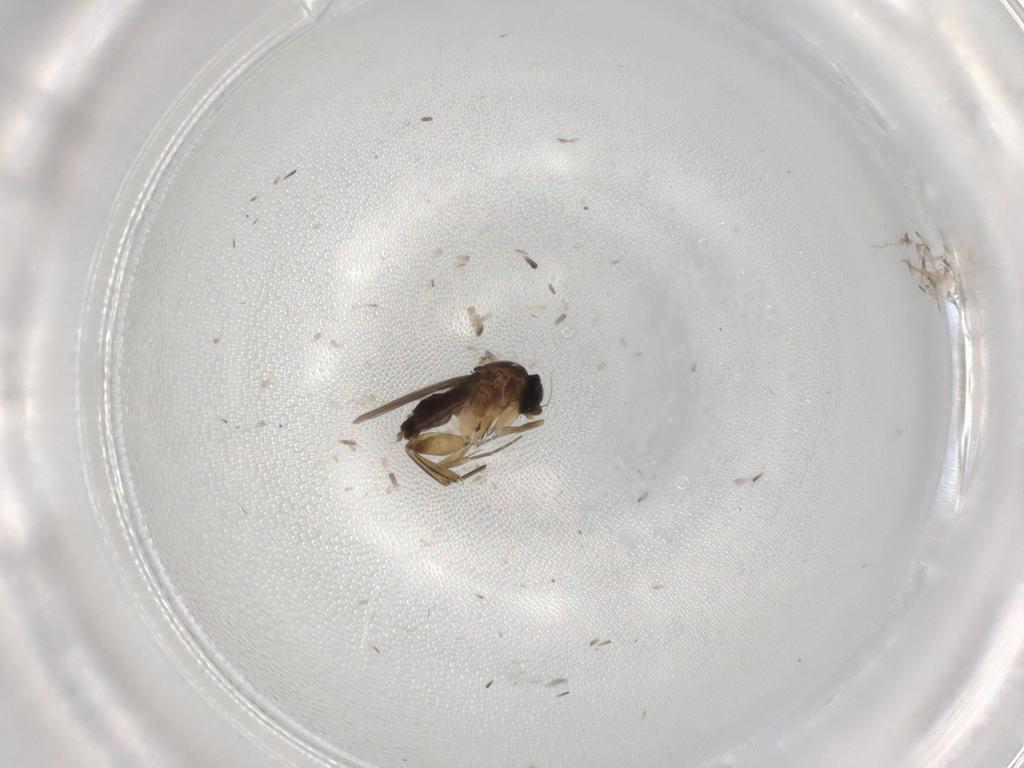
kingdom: Animalia
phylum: Arthropoda
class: Insecta
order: Diptera
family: Phoridae
